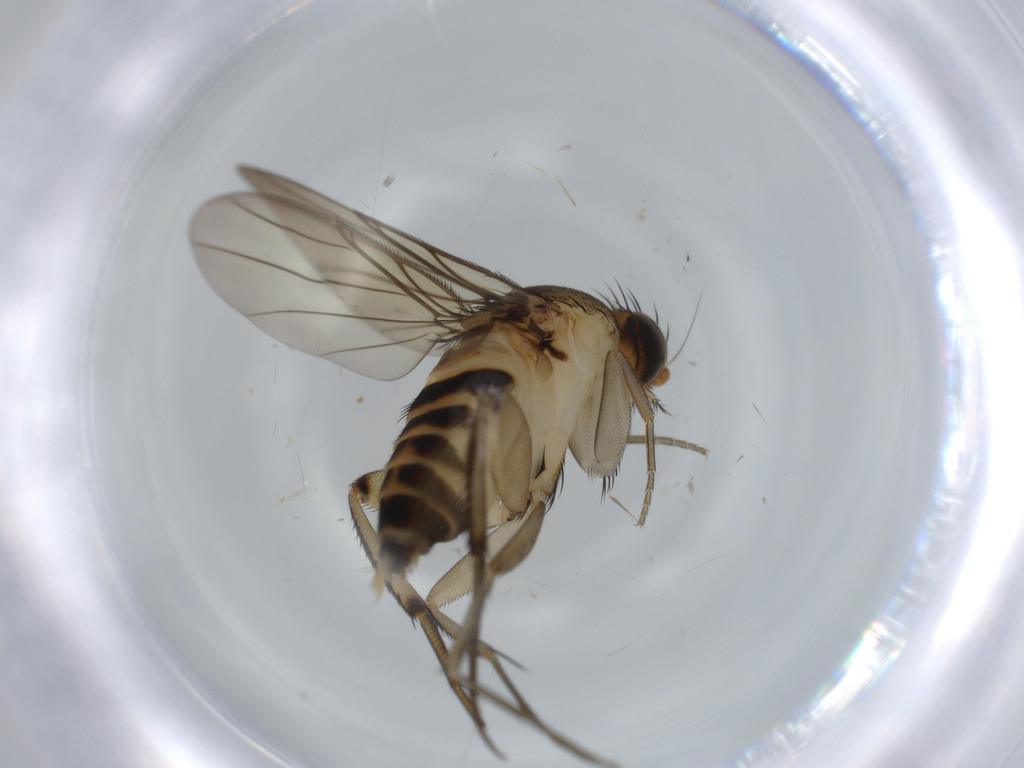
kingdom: Animalia
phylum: Arthropoda
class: Insecta
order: Diptera
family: Phoridae
